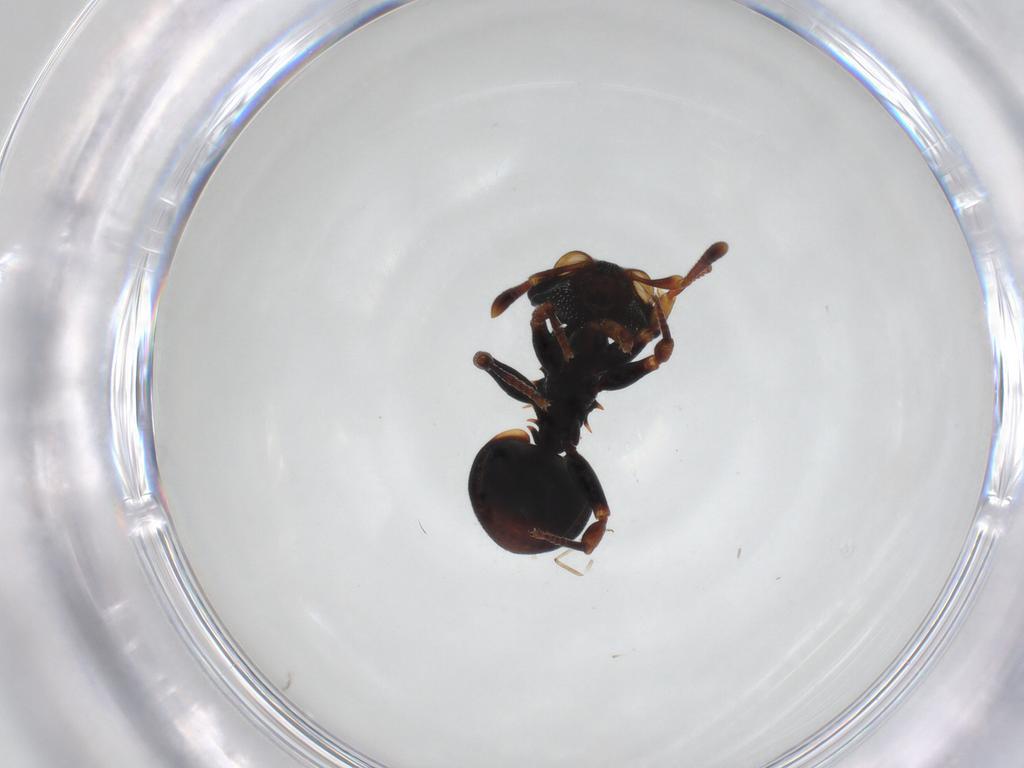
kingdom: Animalia
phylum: Arthropoda
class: Insecta
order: Hymenoptera
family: Formicidae
